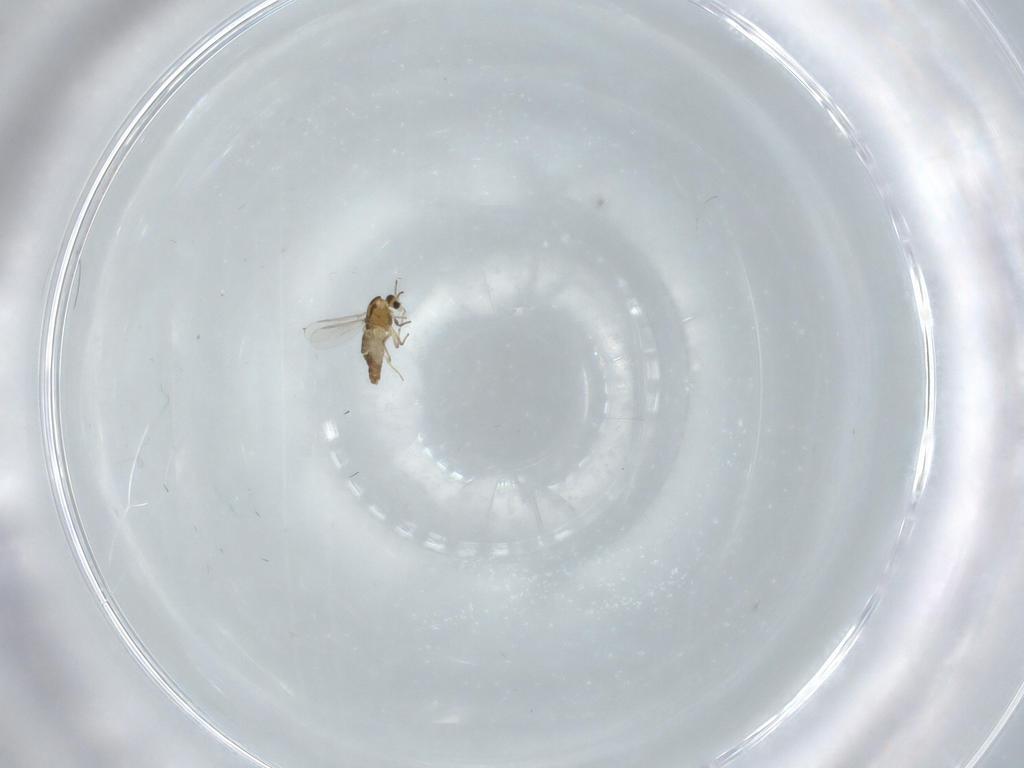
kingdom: Animalia
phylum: Arthropoda
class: Insecta
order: Diptera
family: Chironomidae
